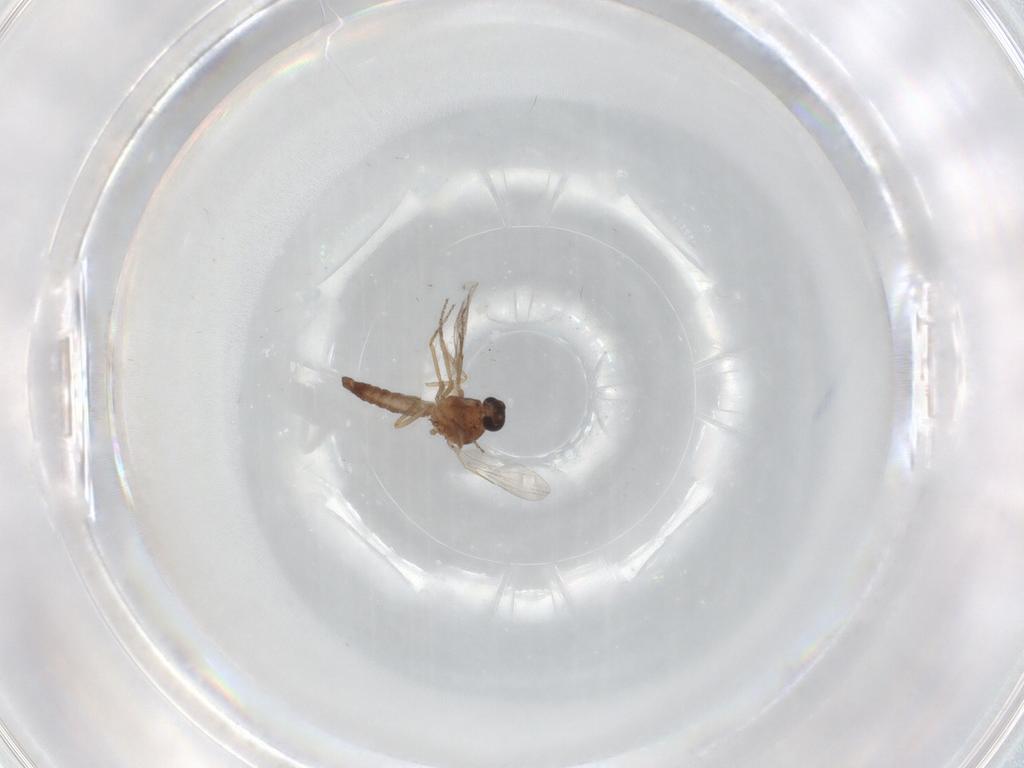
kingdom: Animalia
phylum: Arthropoda
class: Insecta
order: Diptera
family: Ceratopogonidae
